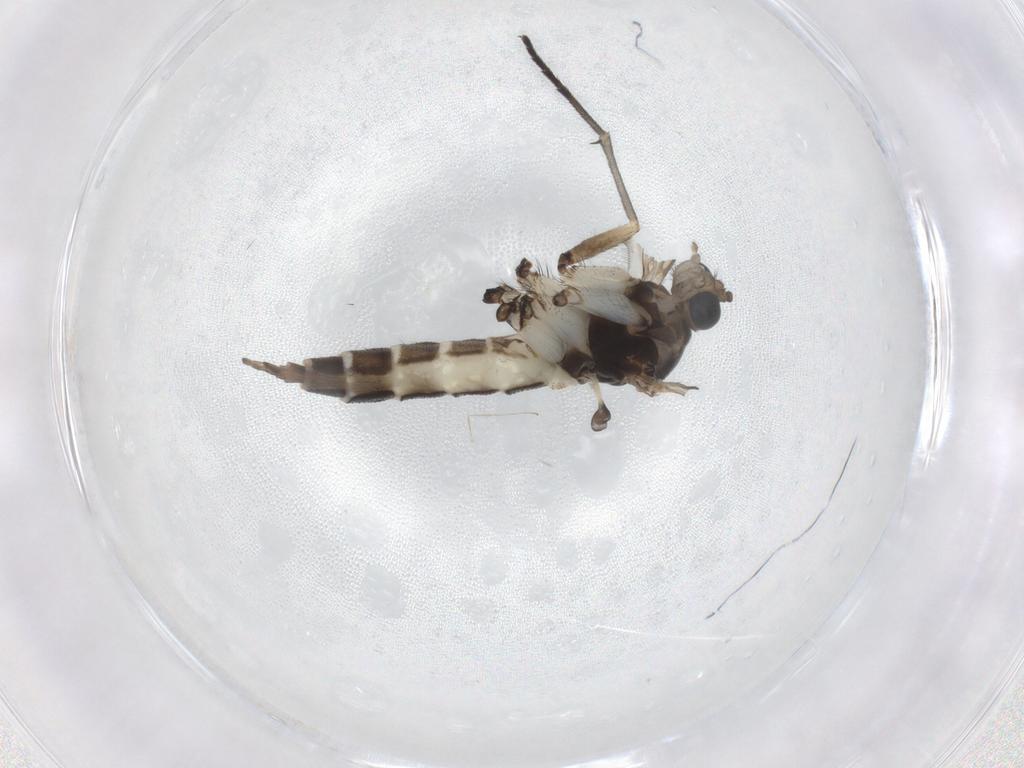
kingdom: Animalia
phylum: Arthropoda
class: Insecta
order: Diptera
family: Sciaridae
